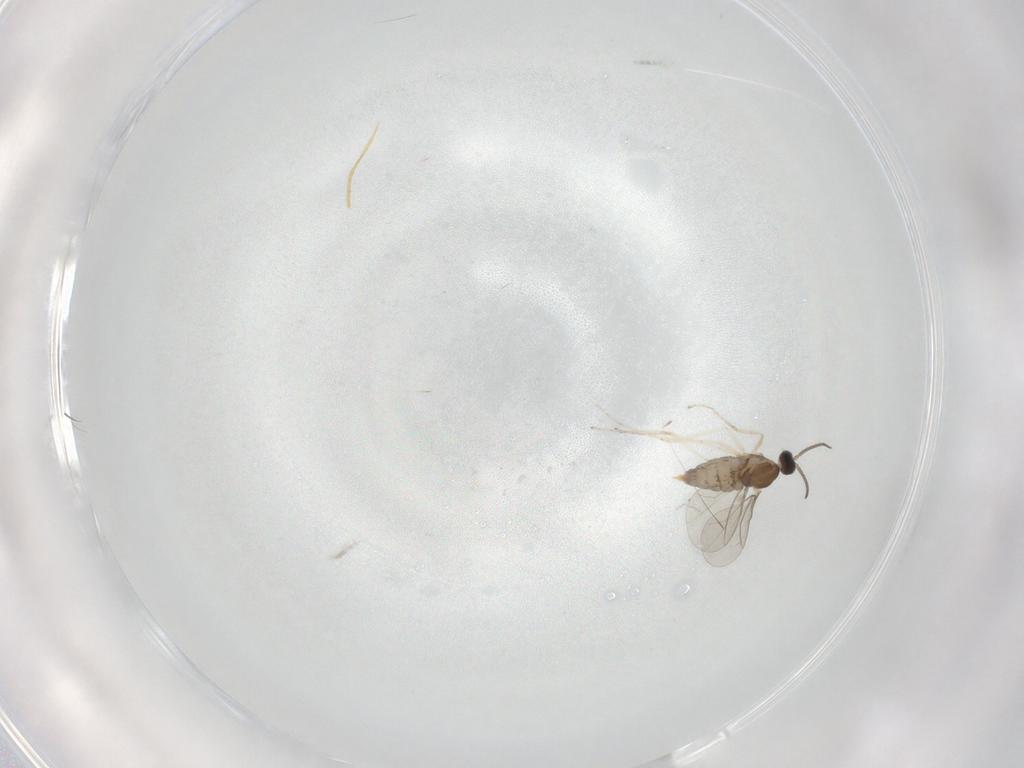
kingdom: Animalia
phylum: Arthropoda
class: Insecta
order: Diptera
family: Cecidomyiidae
